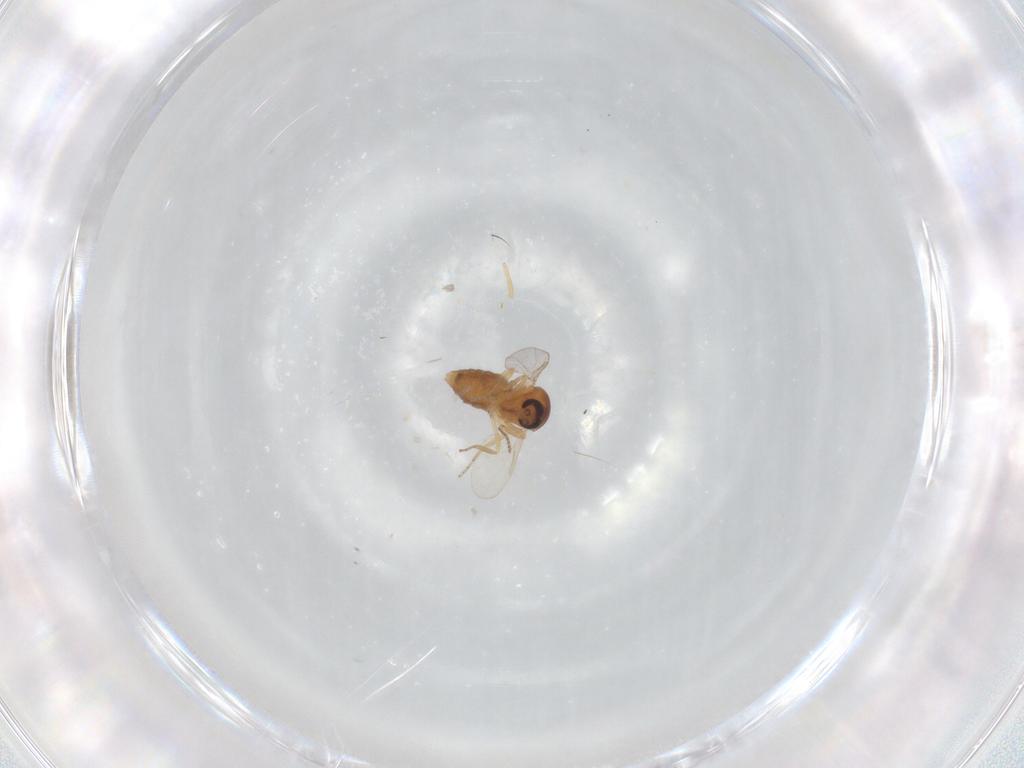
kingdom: Animalia
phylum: Arthropoda
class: Insecta
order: Diptera
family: Ceratopogonidae
